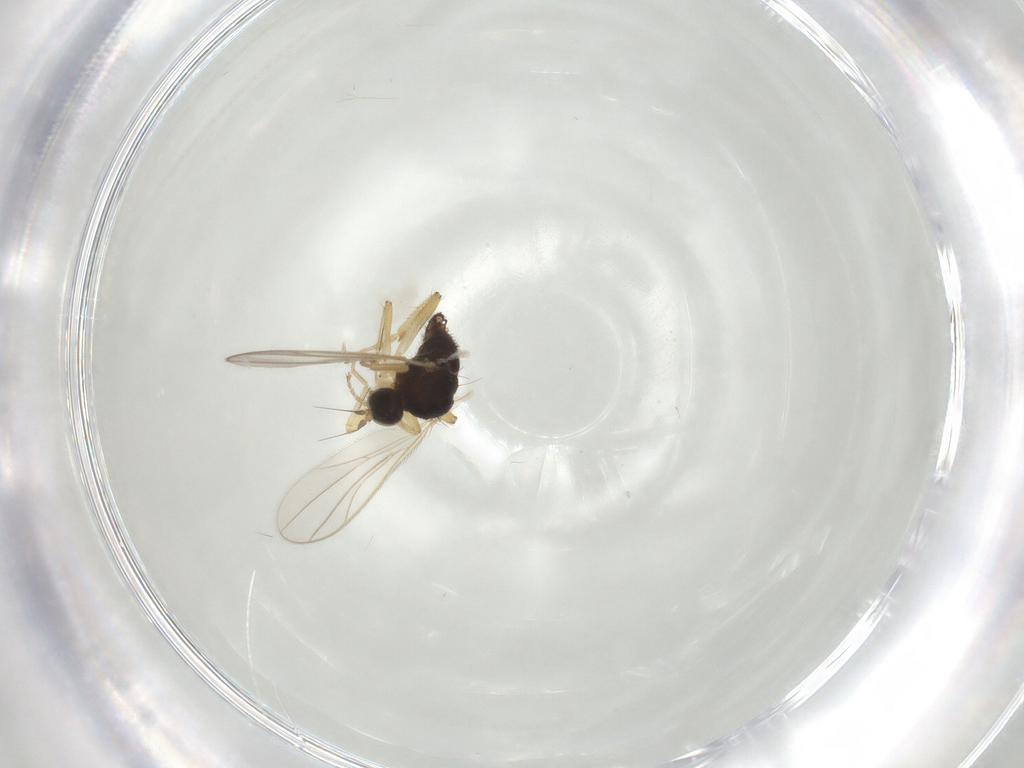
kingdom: Animalia
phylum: Arthropoda
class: Insecta
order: Diptera
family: Hybotidae
